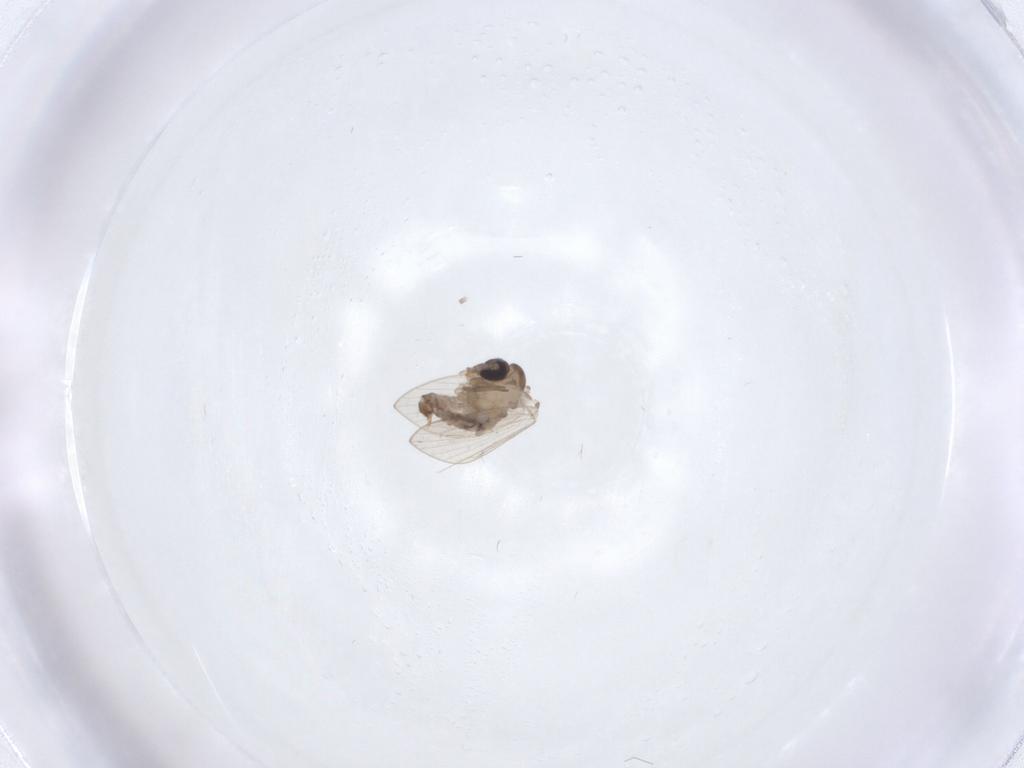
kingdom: Animalia
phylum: Arthropoda
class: Insecta
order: Diptera
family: Psychodidae
